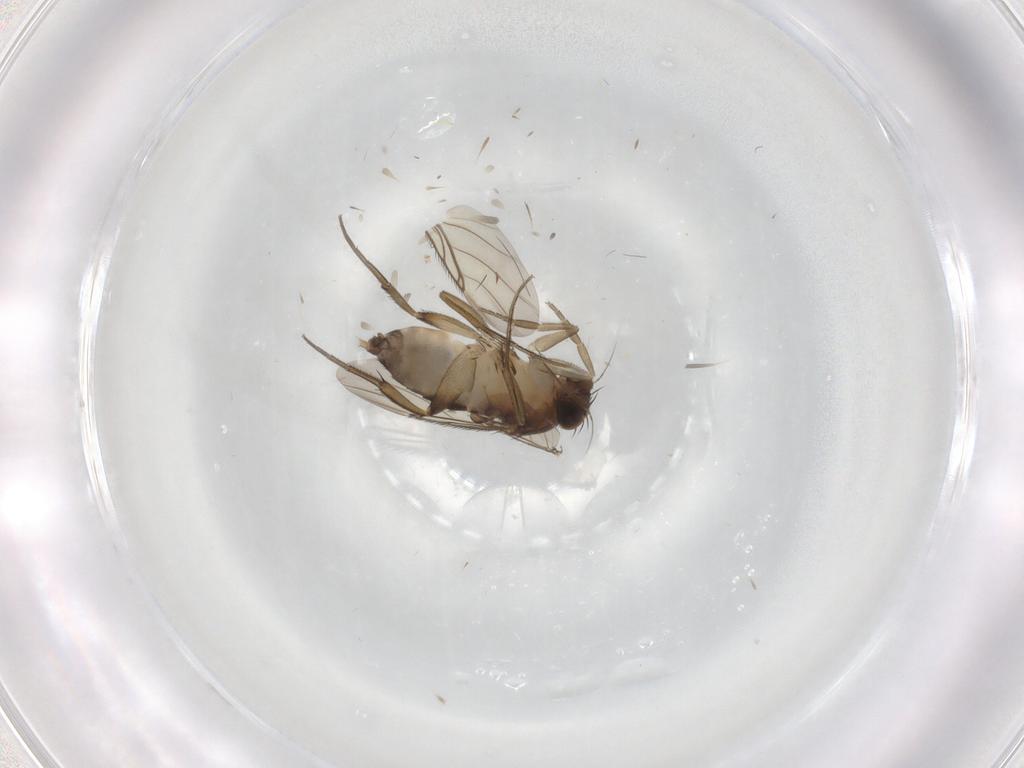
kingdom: Animalia
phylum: Arthropoda
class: Insecta
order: Diptera
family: Phoridae
